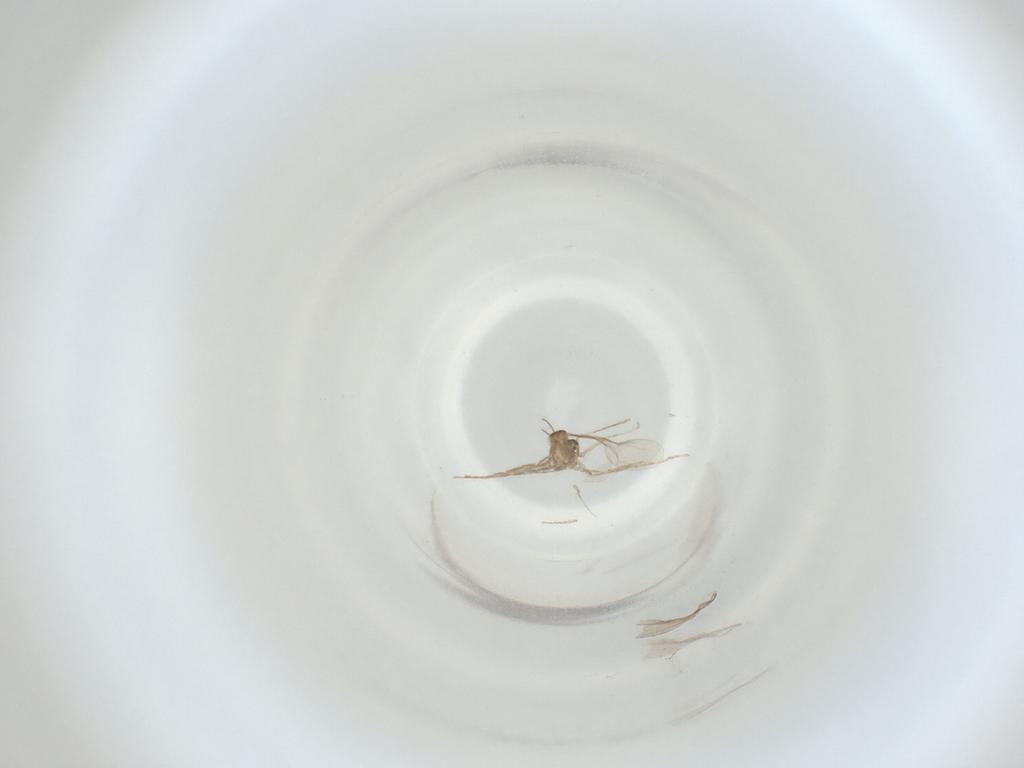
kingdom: Animalia
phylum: Arthropoda
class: Insecta
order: Diptera
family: Cecidomyiidae
